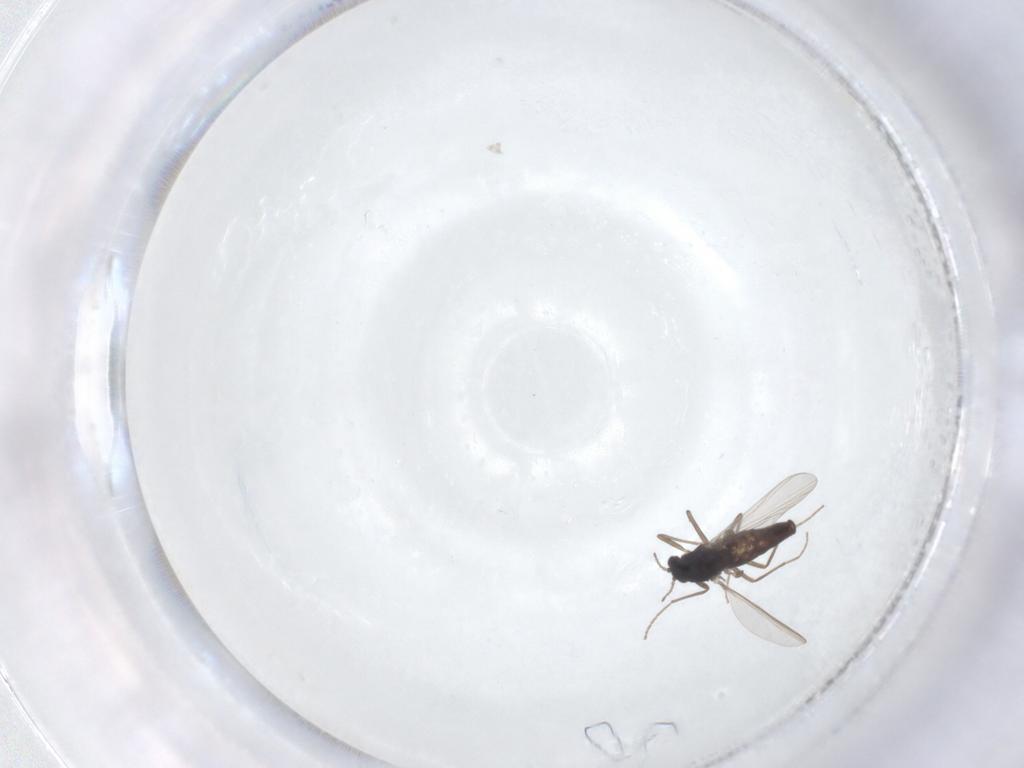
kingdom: Animalia
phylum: Arthropoda
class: Insecta
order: Diptera
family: Chironomidae
